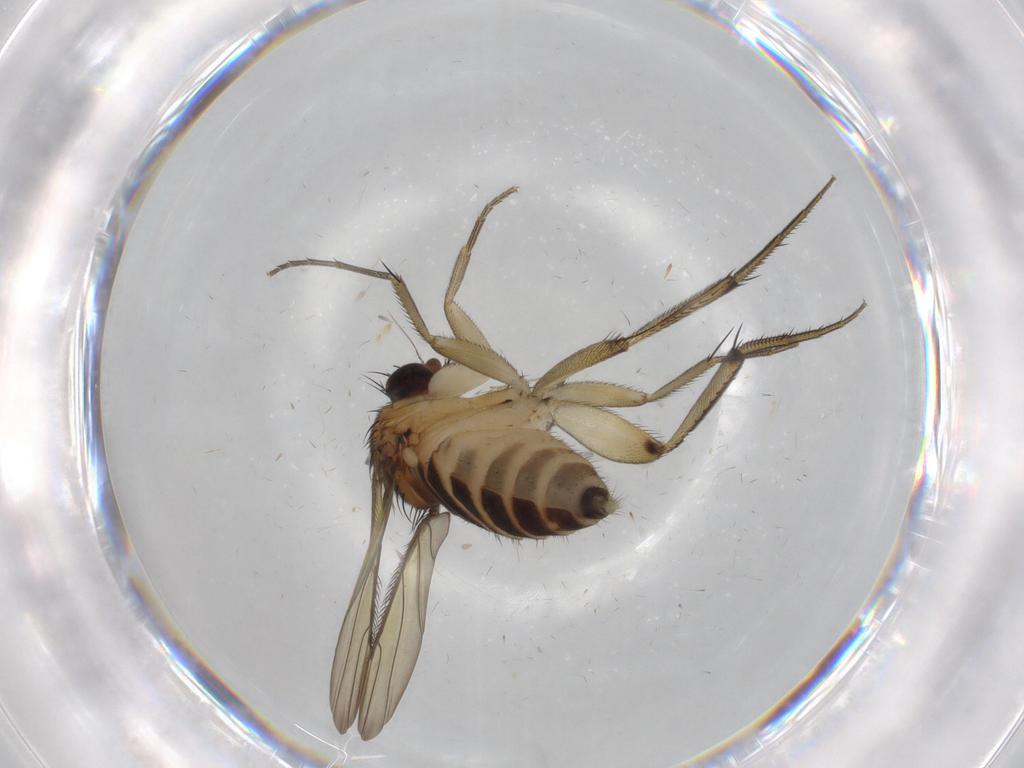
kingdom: Animalia
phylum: Arthropoda
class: Insecta
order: Diptera
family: Phoridae
